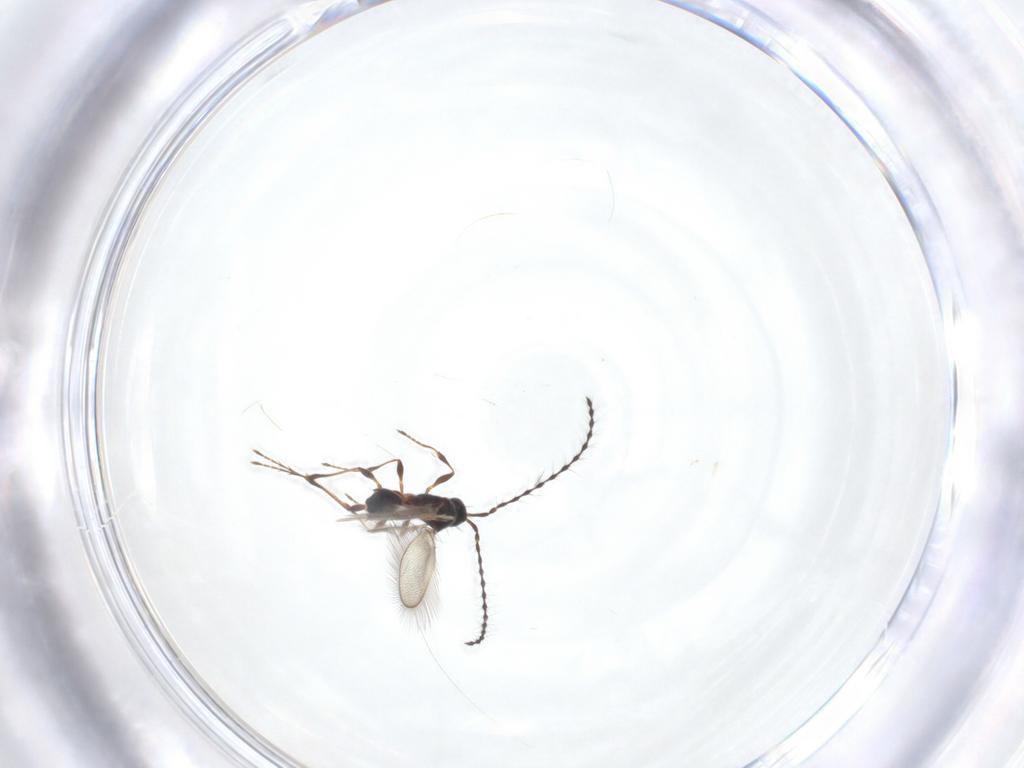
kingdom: Animalia
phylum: Arthropoda
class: Insecta
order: Hymenoptera
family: Diapriidae
